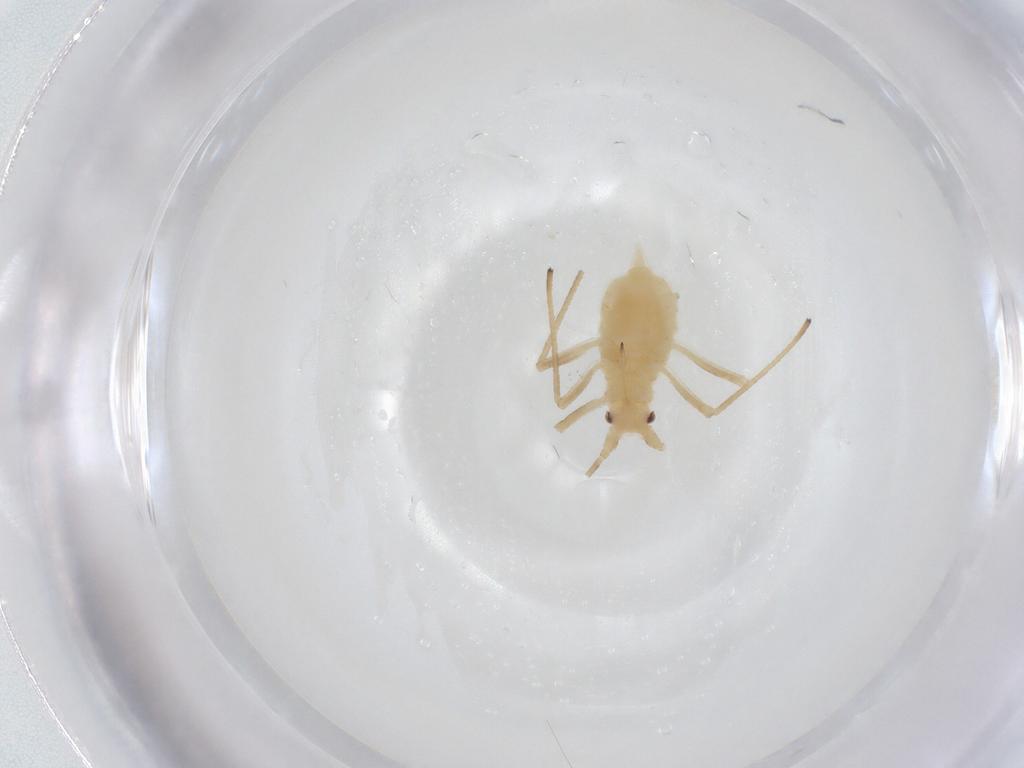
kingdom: Animalia
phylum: Arthropoda
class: Insecta
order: Hemiptera
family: Aphididae
